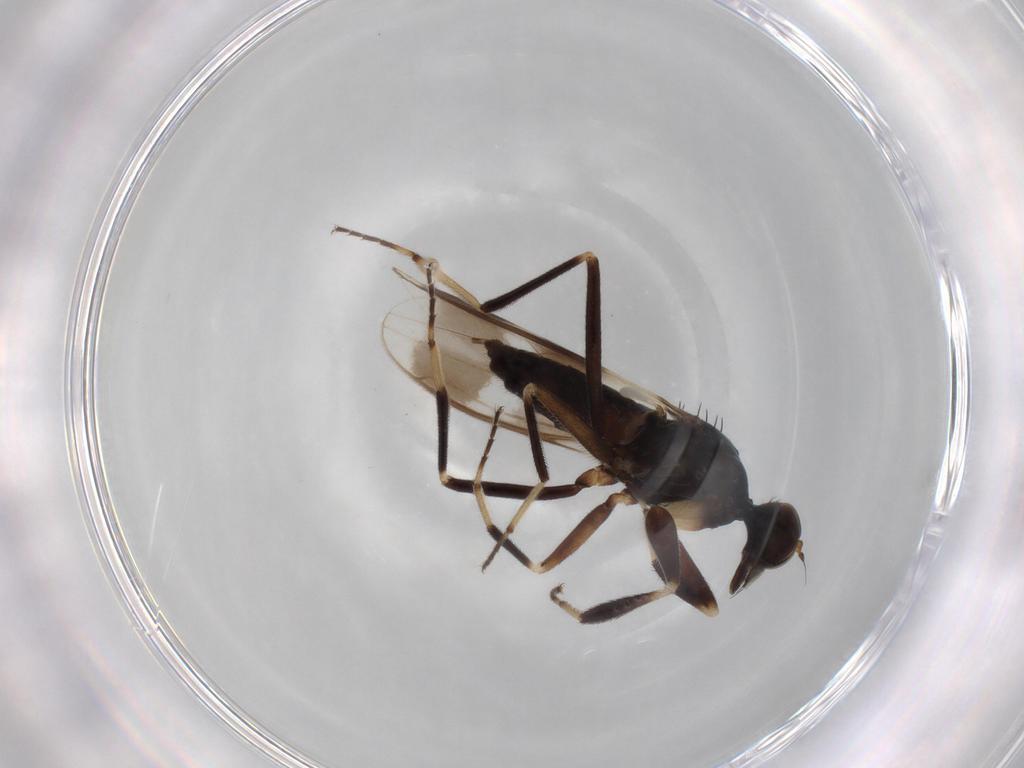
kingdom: Animalia
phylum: Arthropoda
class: Insecta
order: Diptera
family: Hybotidae
